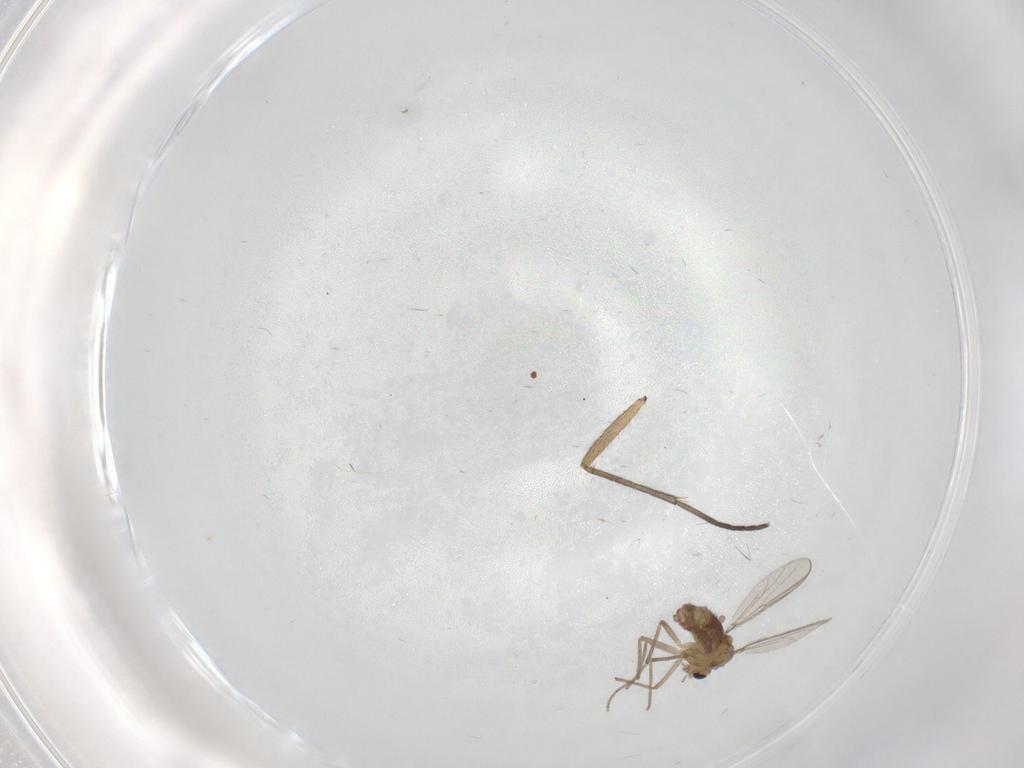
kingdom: Animalia
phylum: Arthropoda
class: Insecta
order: Diptera
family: Chironomidae
